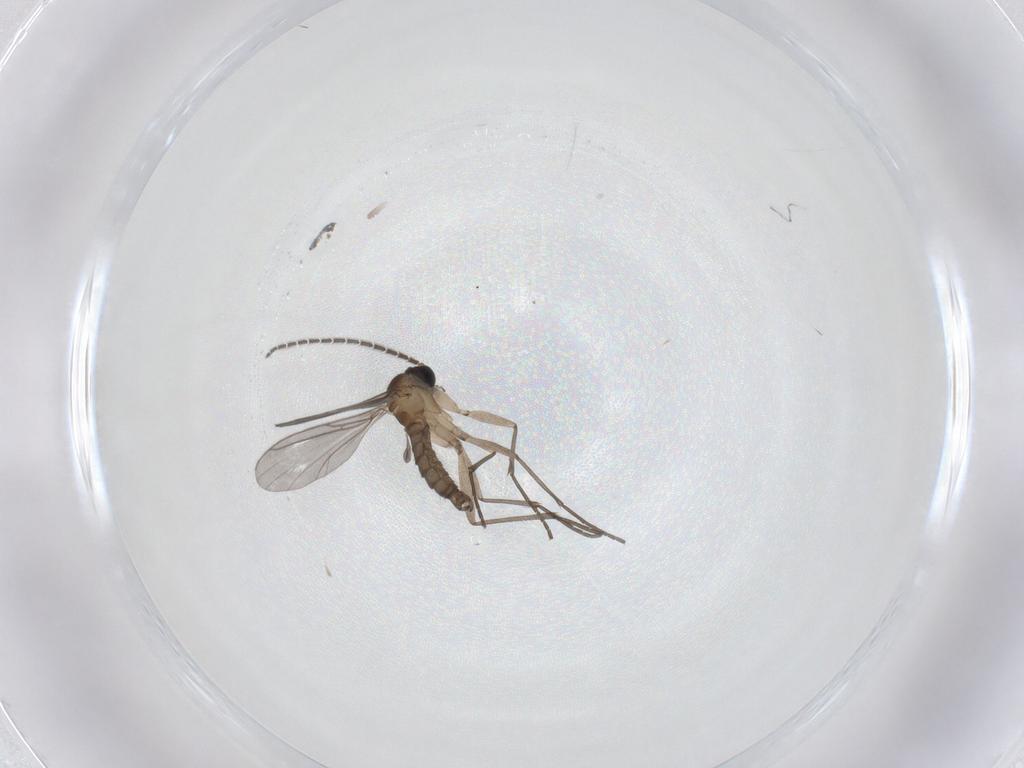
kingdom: Animalia
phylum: Arthropoda
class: Insecta
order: Diptera
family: Sciaridae
